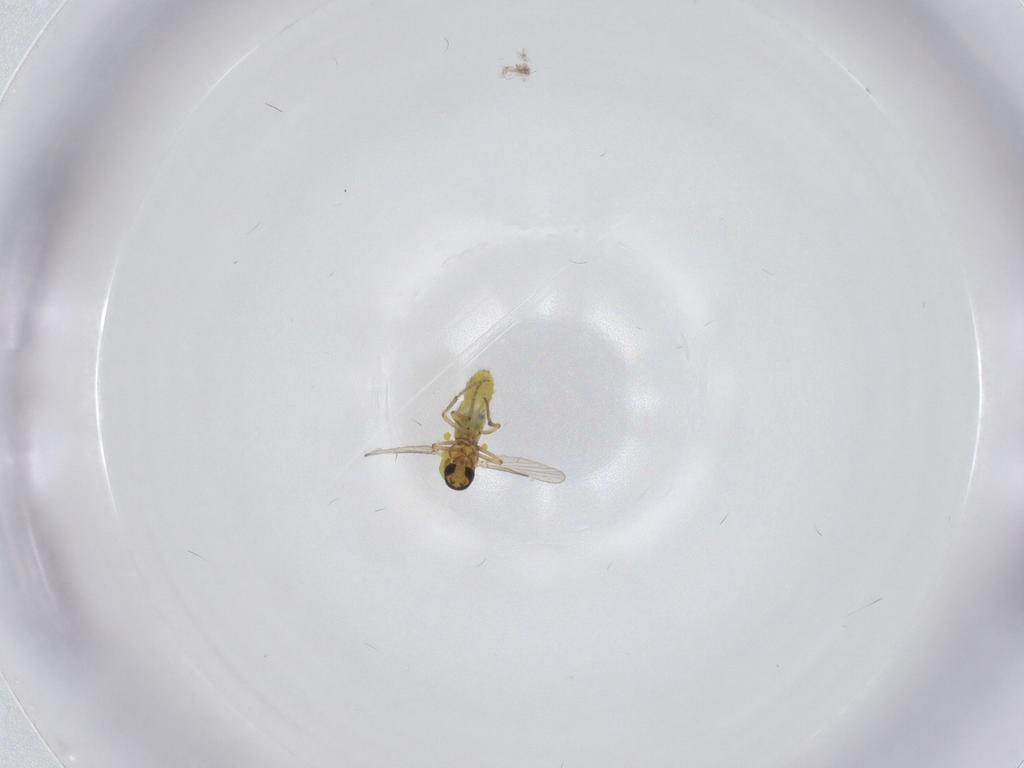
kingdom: Animalia
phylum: Arthropoda
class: Insecta
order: Diptera
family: Ceratopogonidae
